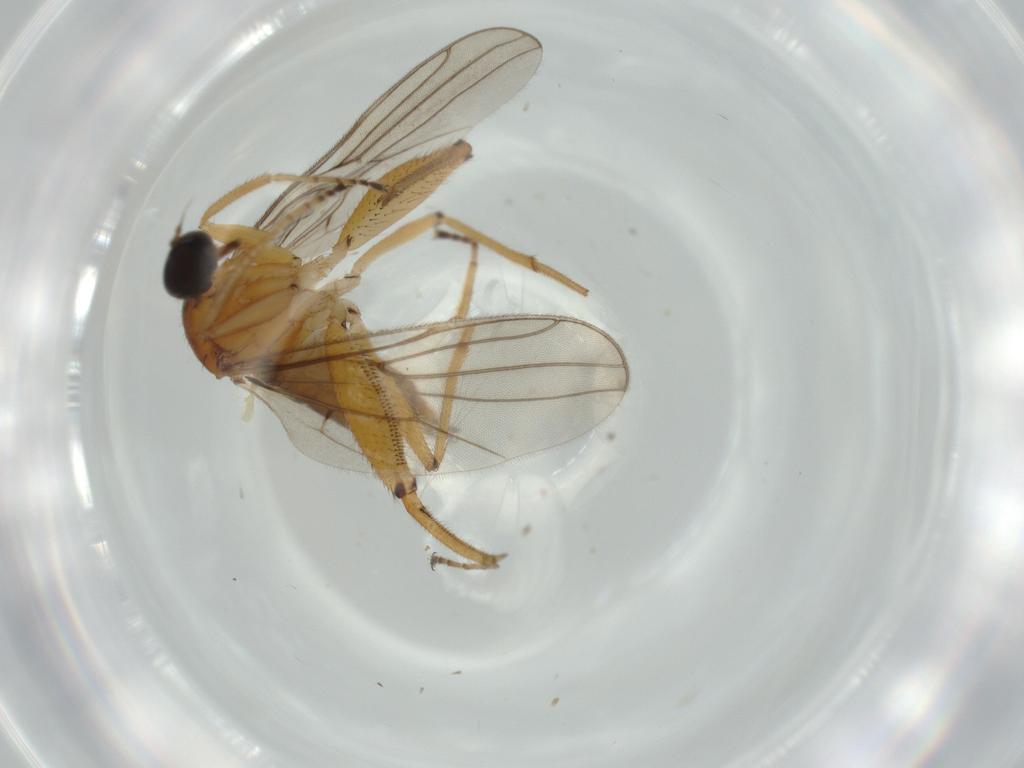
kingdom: Animalia
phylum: Arthropoda
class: Insecta
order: Diptera
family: Hybotidae
